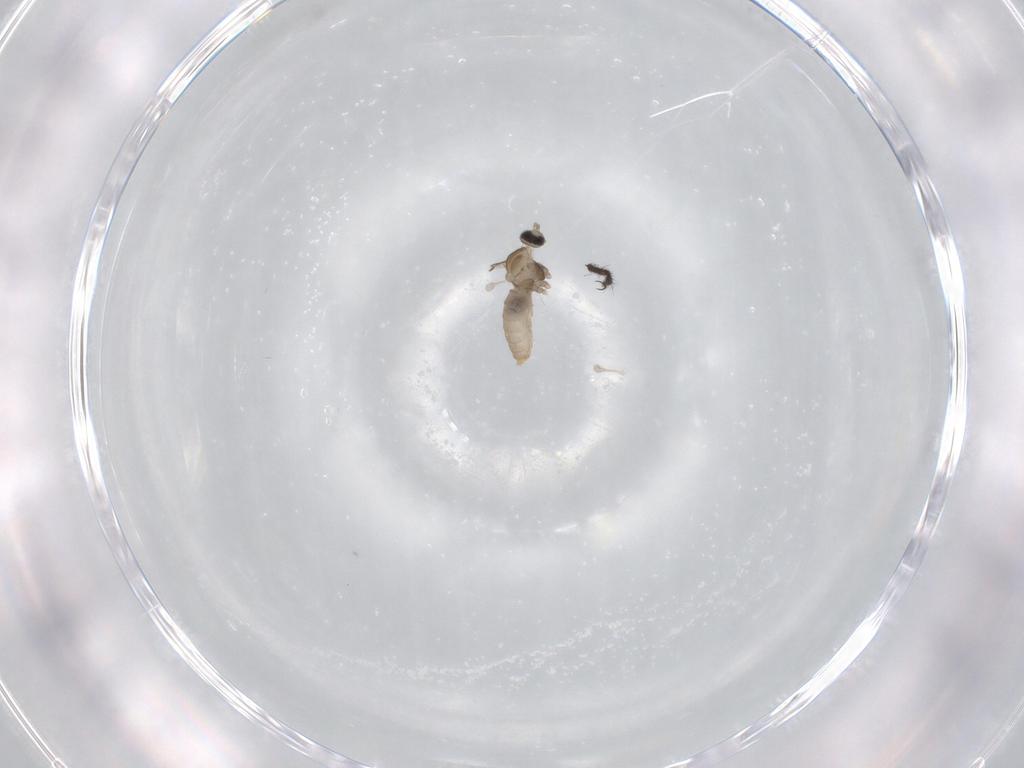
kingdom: Animalia
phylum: Arthropoda
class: Insecta
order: Diptera
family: Cecidomyiidae
